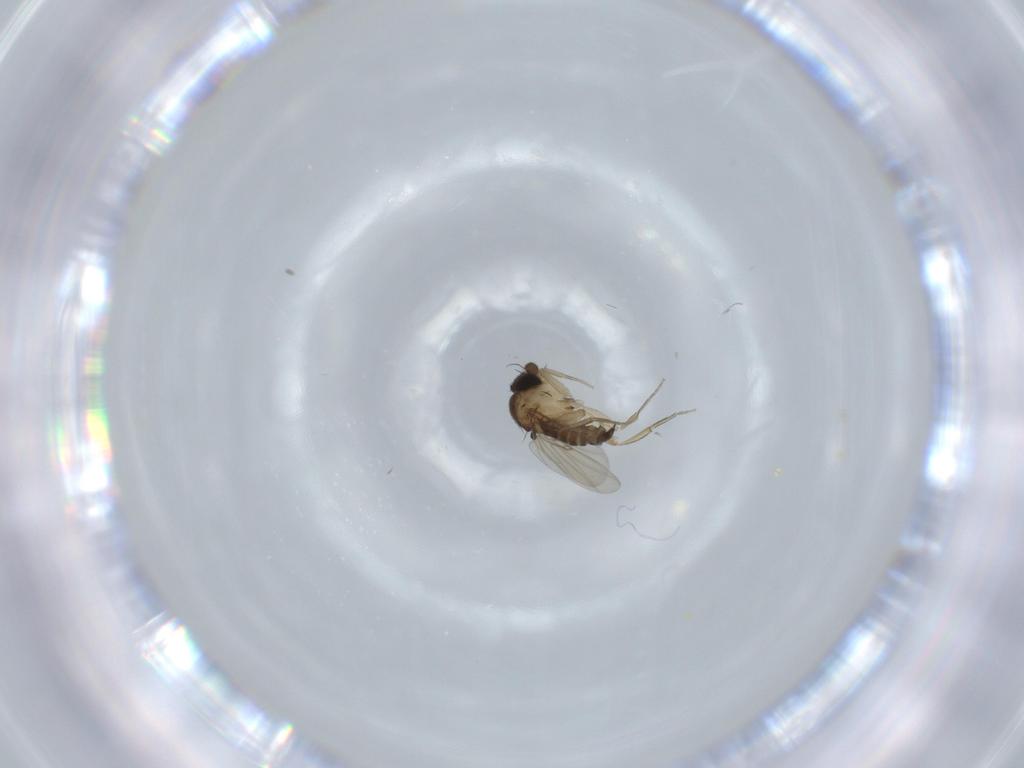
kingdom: Animalia
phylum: Arthropoda
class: Insecta
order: Diptera
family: Phoridae
